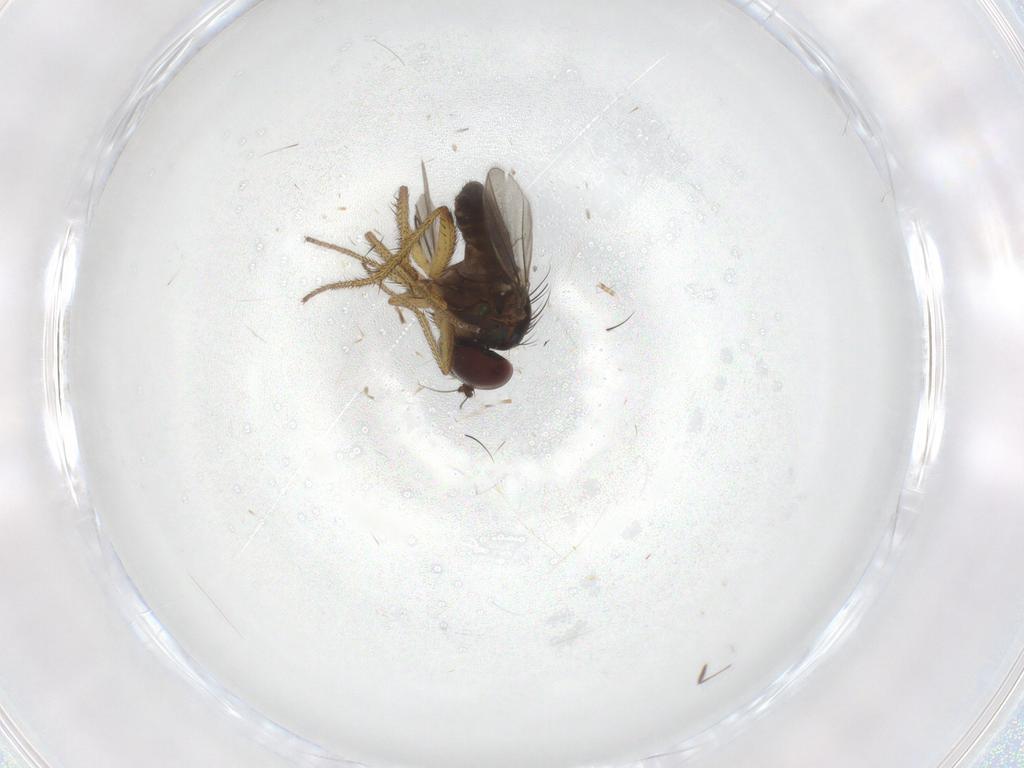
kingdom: Animalia
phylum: Arthropoda
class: Insecta
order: Diptera
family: Dolichopodidae
